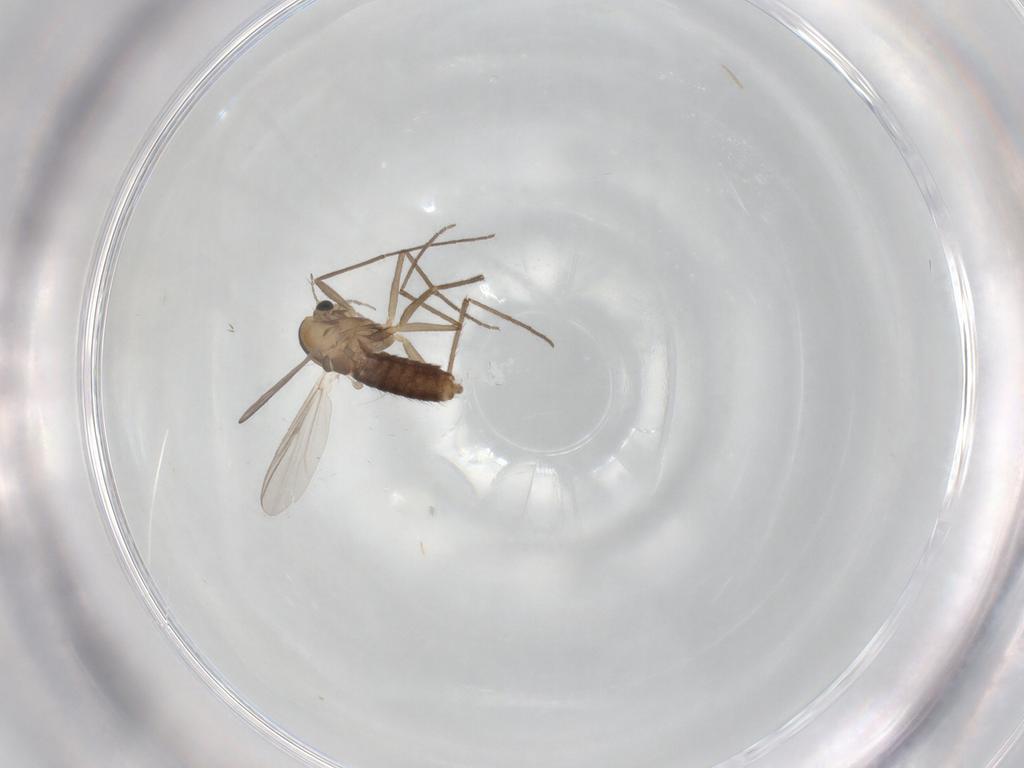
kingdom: Animalia
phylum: Arthropoda
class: Insecta
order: Diptera
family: Chironomidae
